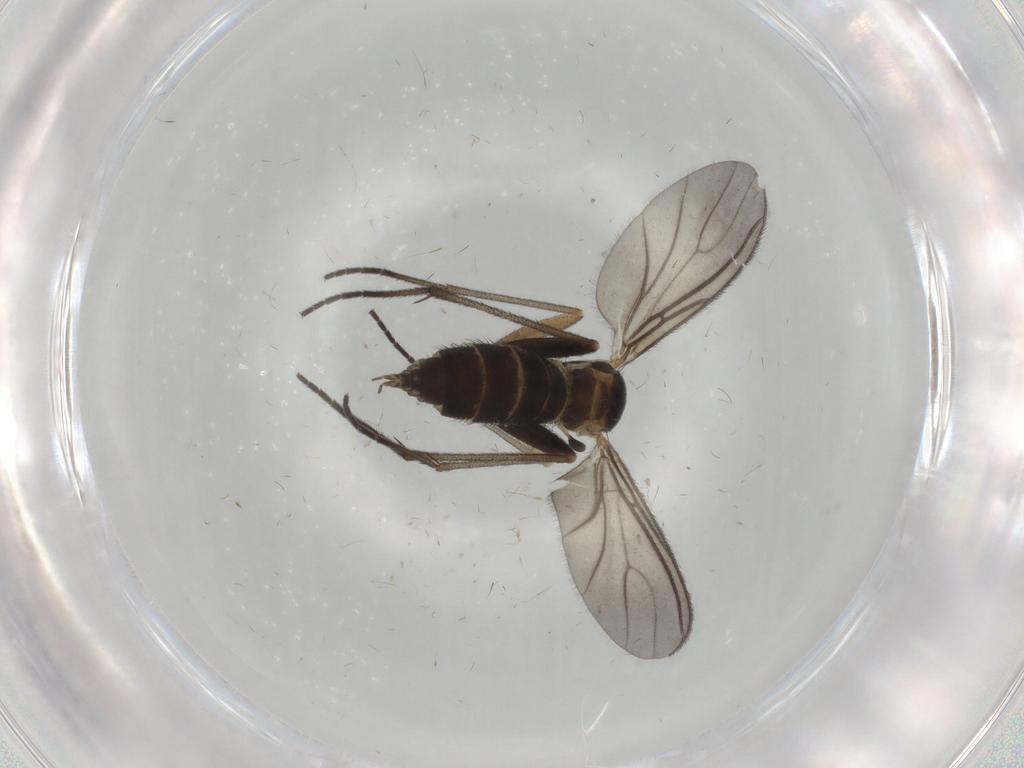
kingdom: Animalia
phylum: Arthropoda
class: Insecta
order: Diptera
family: Sciaridae
